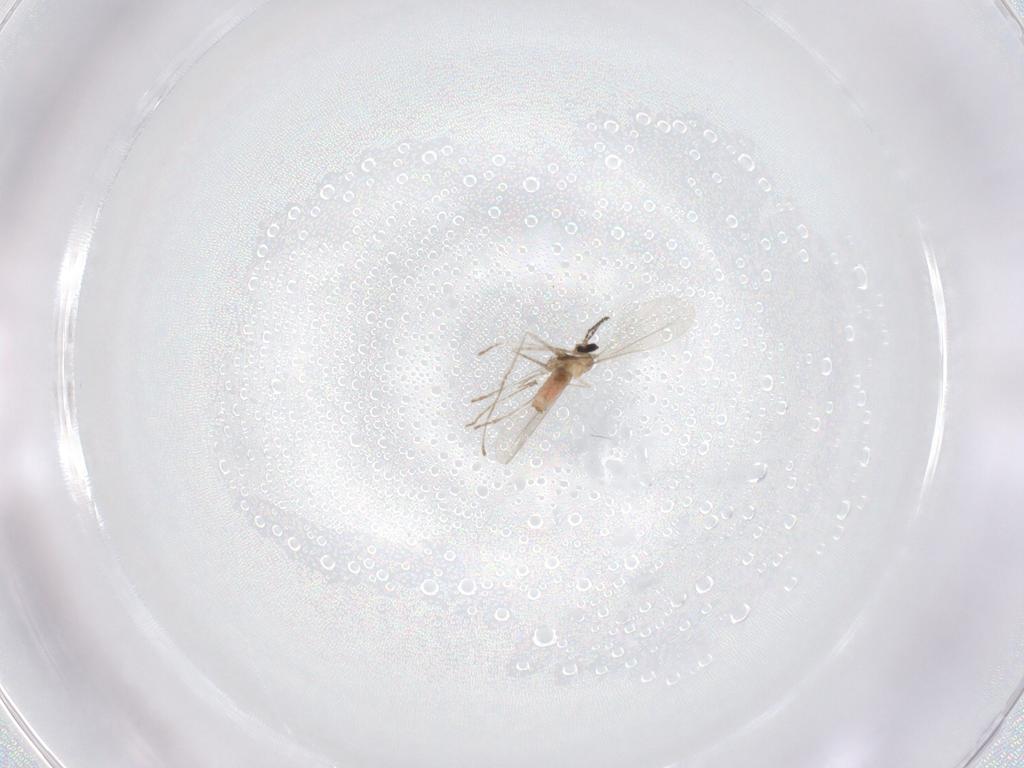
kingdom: Animalia
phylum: Arthropoda
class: Insecta
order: Diptera
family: Cecidomyiidae
